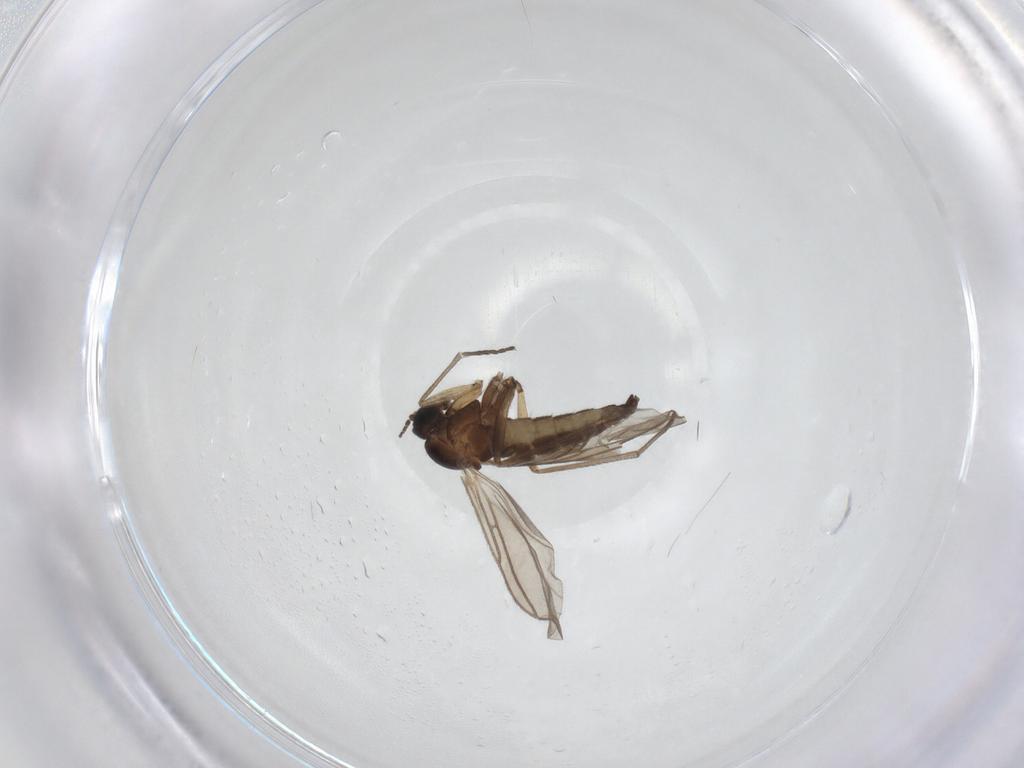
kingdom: Animalia
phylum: Arthropoda
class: Insecta
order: Diptera
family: Sciaridae
